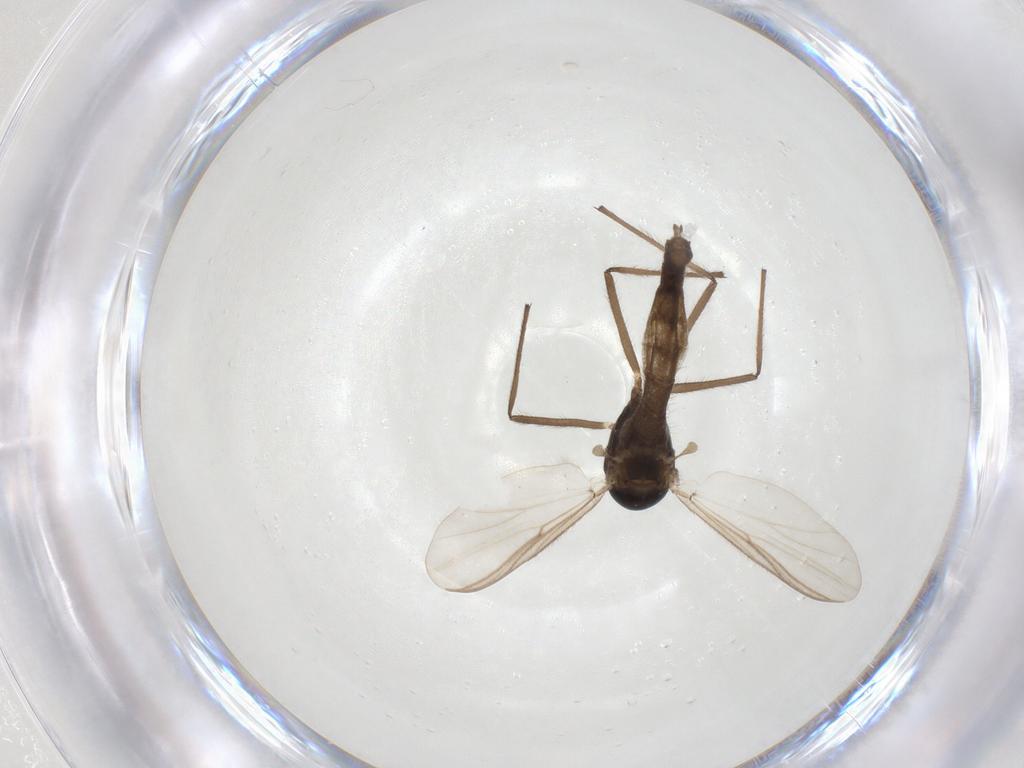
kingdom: Animalia
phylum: Arthropoda
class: Insecta
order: Diptera
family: Chironomidae
